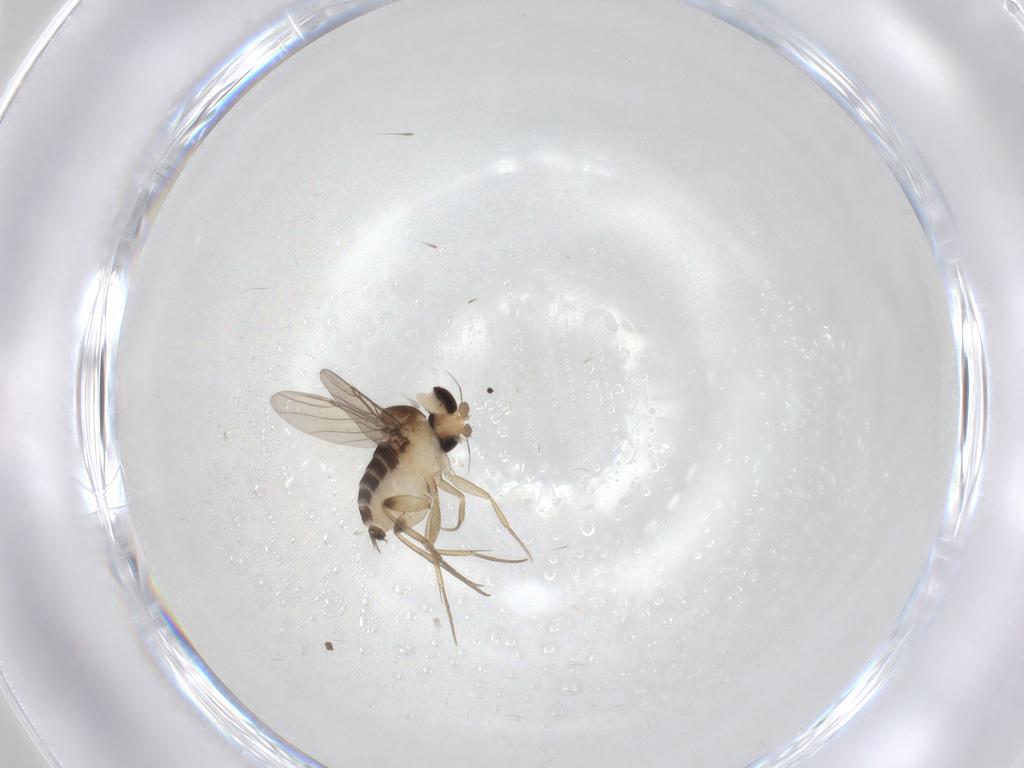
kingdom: Animalia
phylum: Arthropoda
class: Insecta
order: Diptera
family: Phoridae
